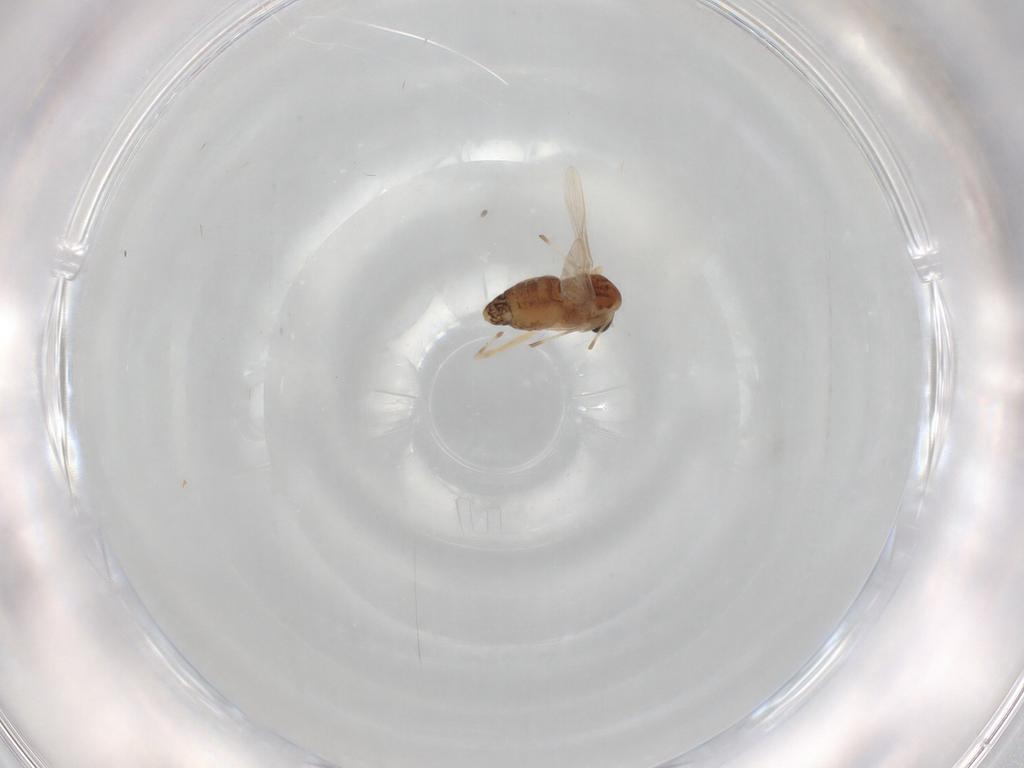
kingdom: Animalia
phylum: Arthropoda
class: Insecta
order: Diptera
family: Chironomidae
